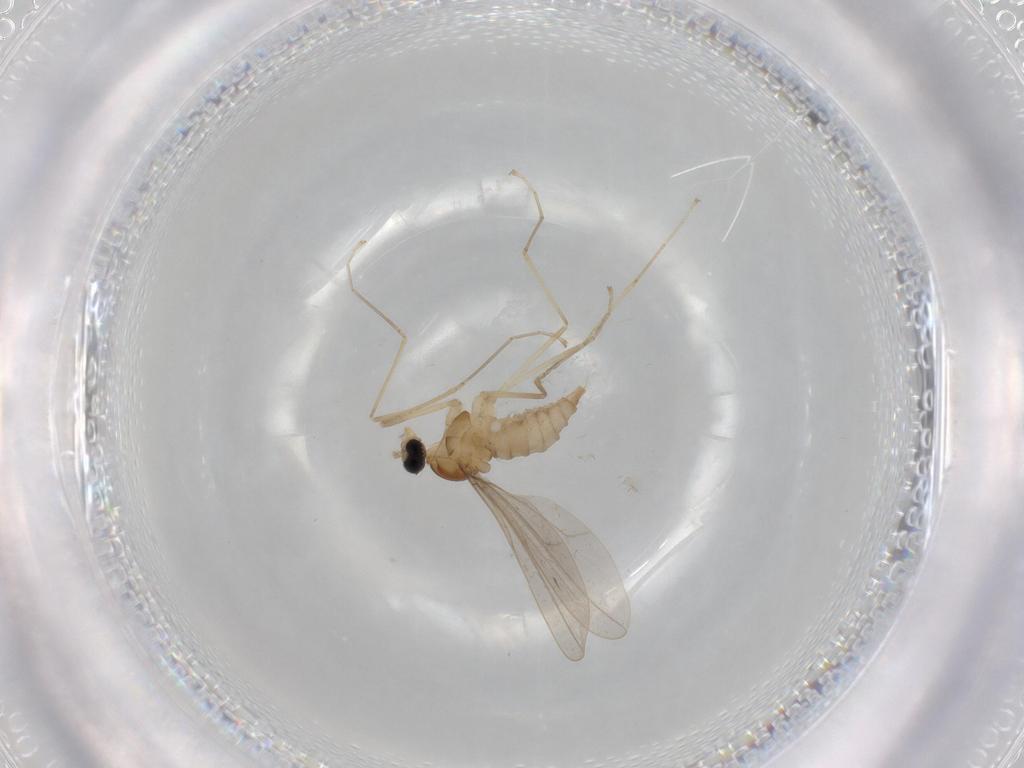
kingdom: Animalia
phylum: Arthropoda
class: Insecta
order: Diptera
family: Cecidomyiidae
